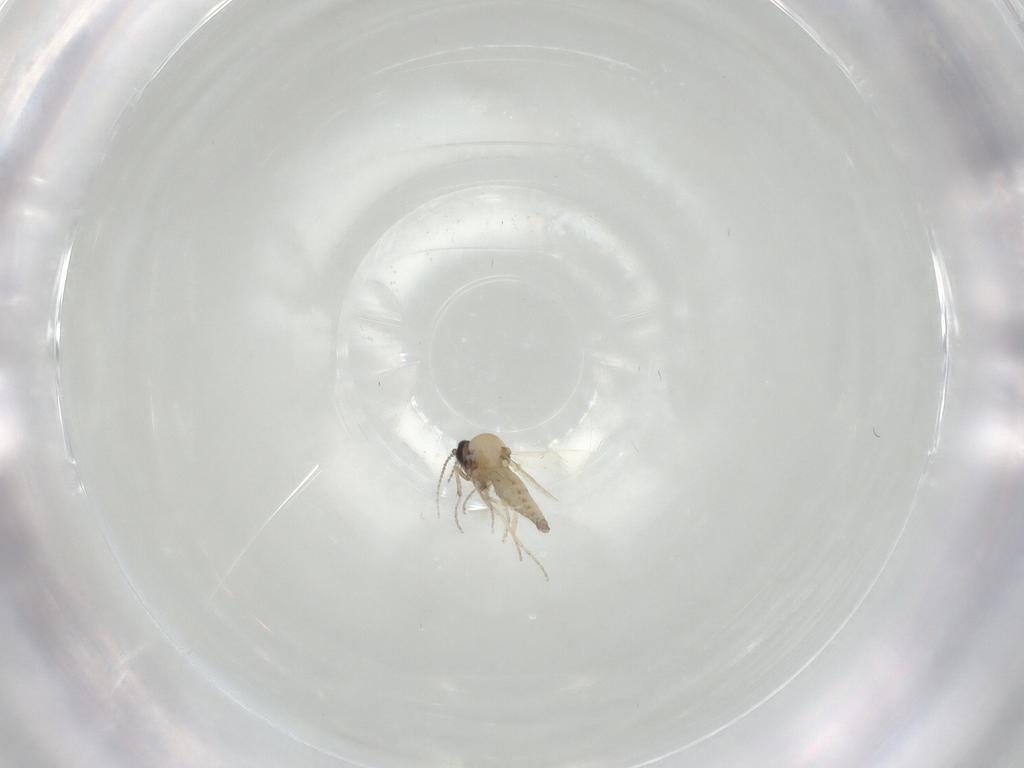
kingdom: Animalia
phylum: Arthropoda
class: Insecta
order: Diptera
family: Ceratopogonidae
